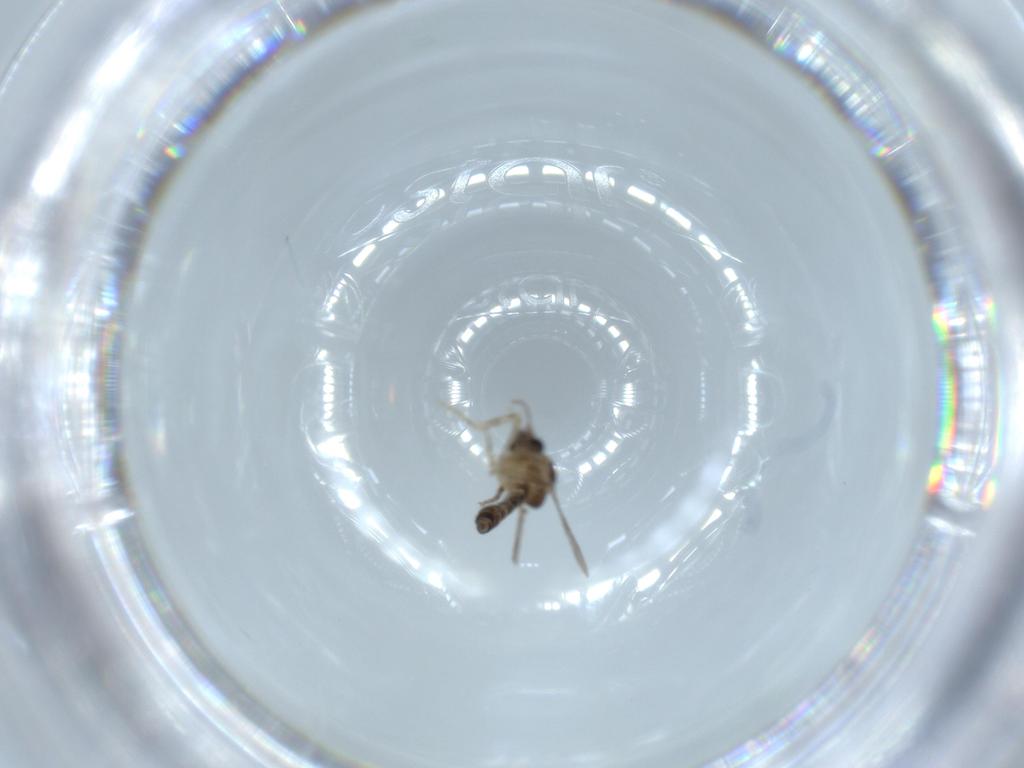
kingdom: Animalia
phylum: Arthropoda
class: Insecta
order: Diptera
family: Ceratopogonidae
